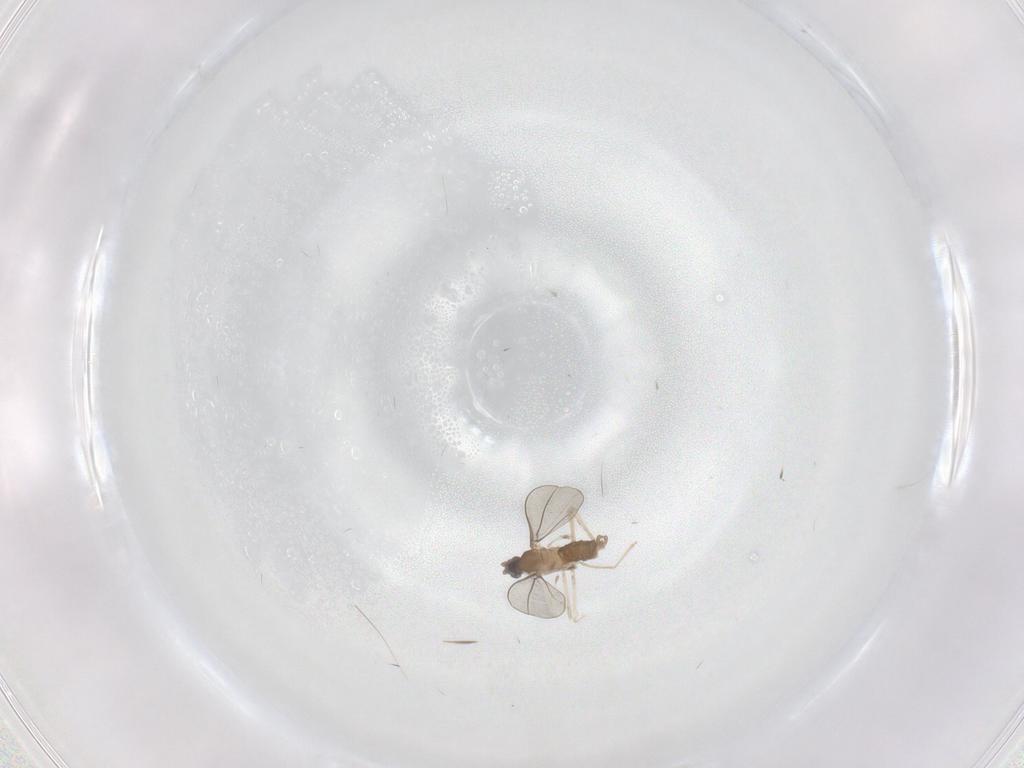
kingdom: Animalia
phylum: Arthropoda
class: Insecta
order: Diptera
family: Cecidomyiidae
